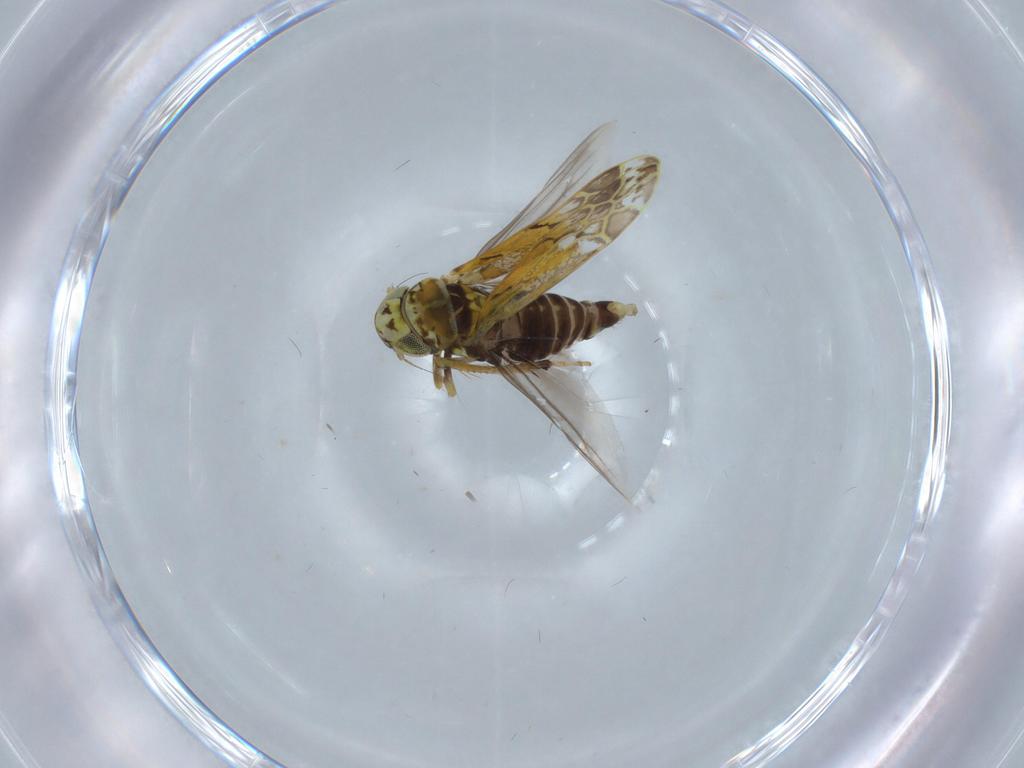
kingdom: Animalia
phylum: Arthropoda
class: Insecta
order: Hemiptera
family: Cicadellidae
